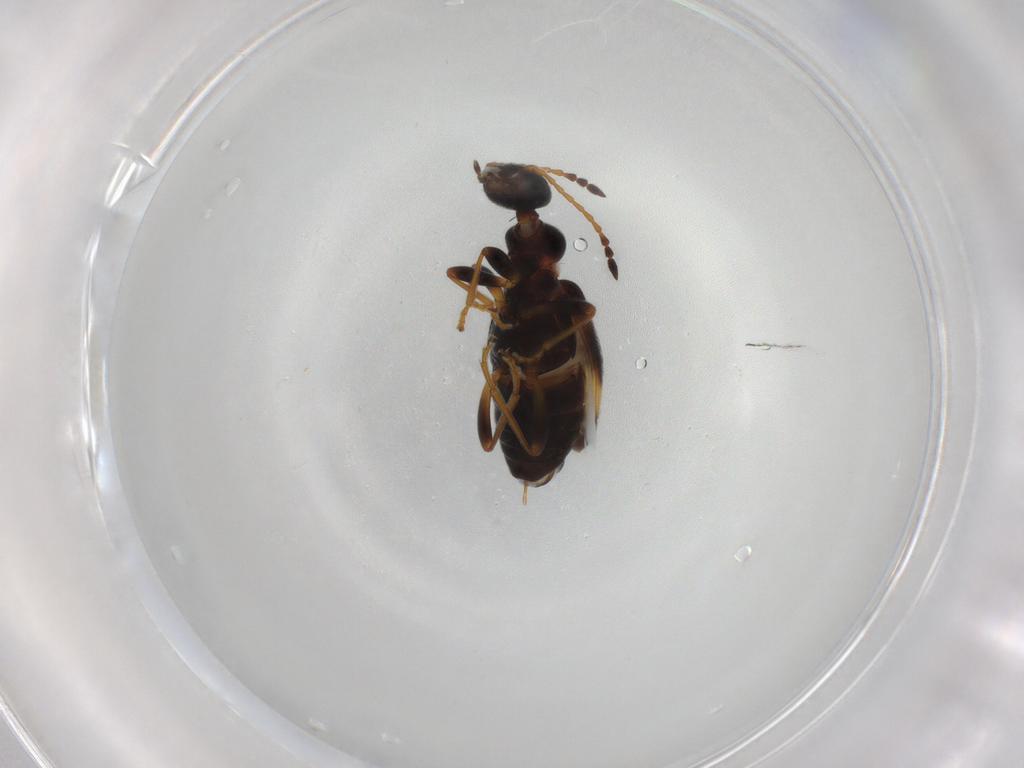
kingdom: Animalia
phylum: Arthropoda
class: Insecta
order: Coleoptera
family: Anthicidae
